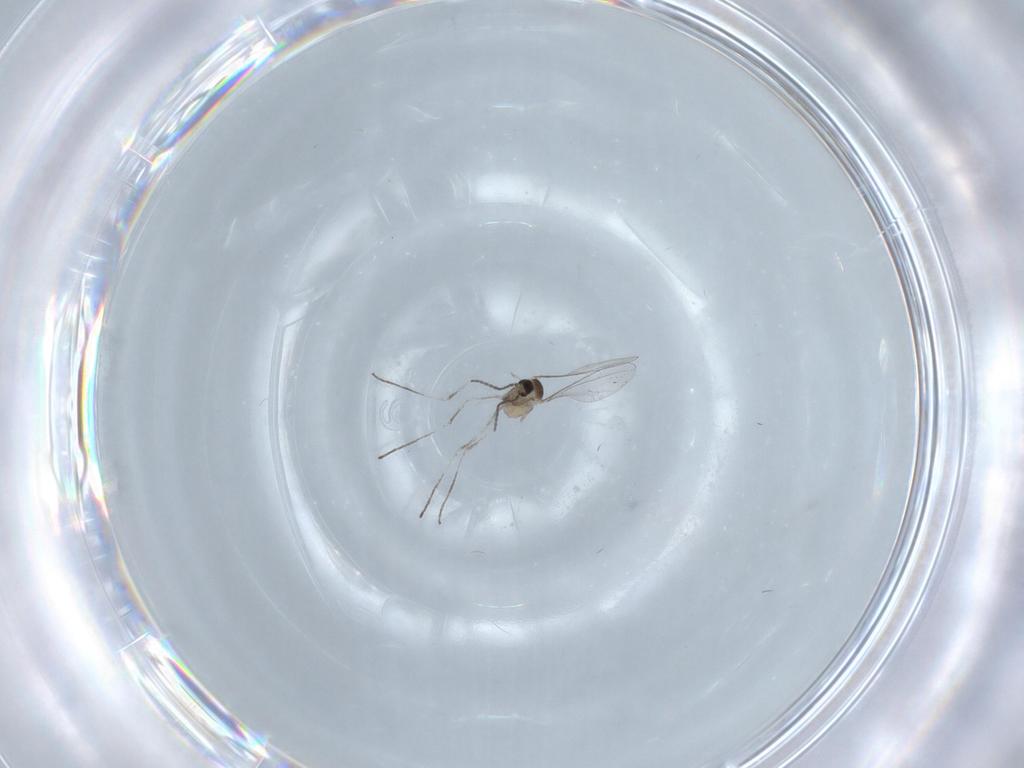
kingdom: Animalia
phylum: Arthropoda
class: Insecta
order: Diptera
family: Cecidomyiidae
